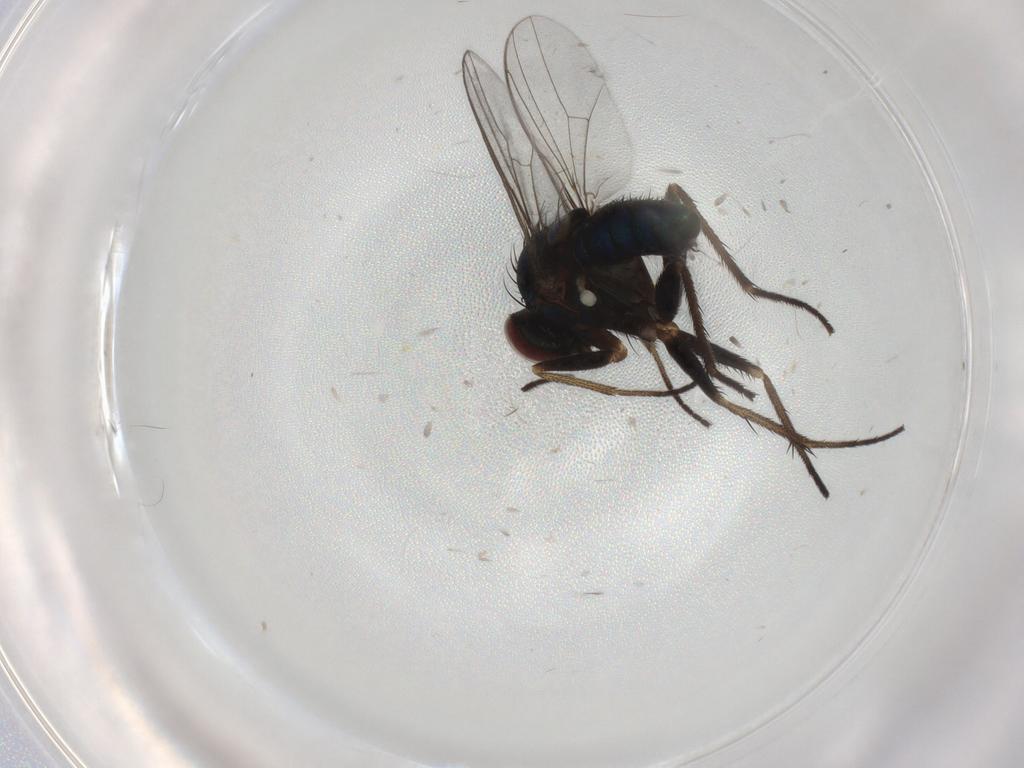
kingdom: Animalia
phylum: Arthropoda
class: Insecta
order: Diptera
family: Dolichopodidae
